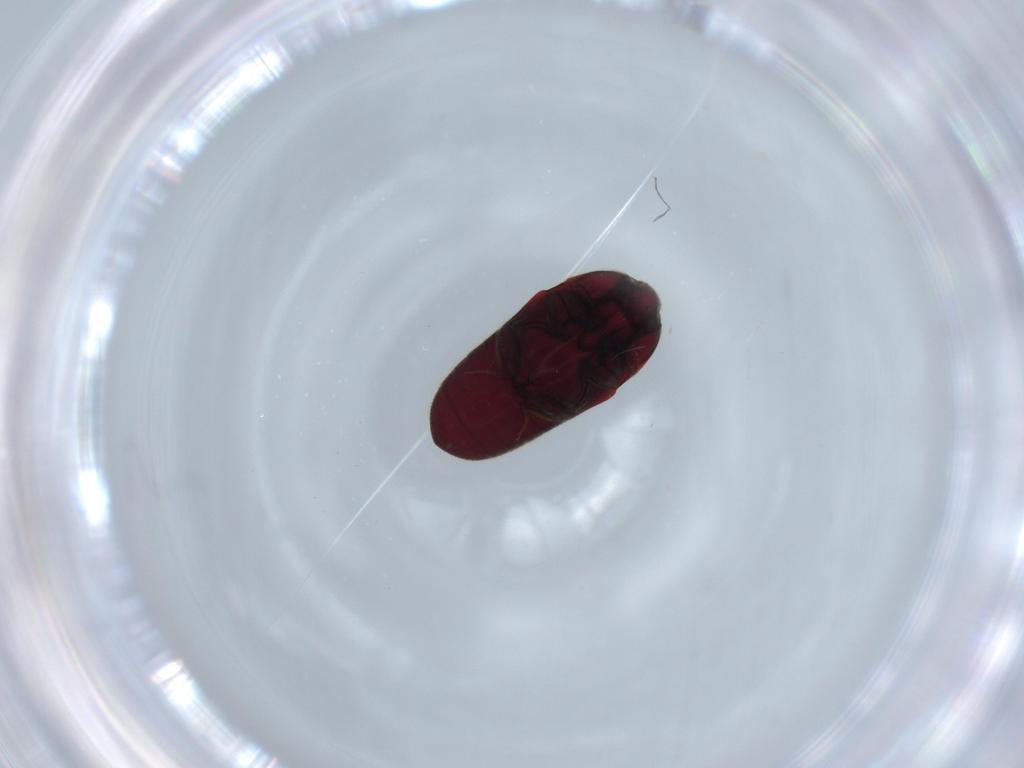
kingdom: Animalia
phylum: Arthropoda
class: Insecta
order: Coleoptera
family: Throscidae
